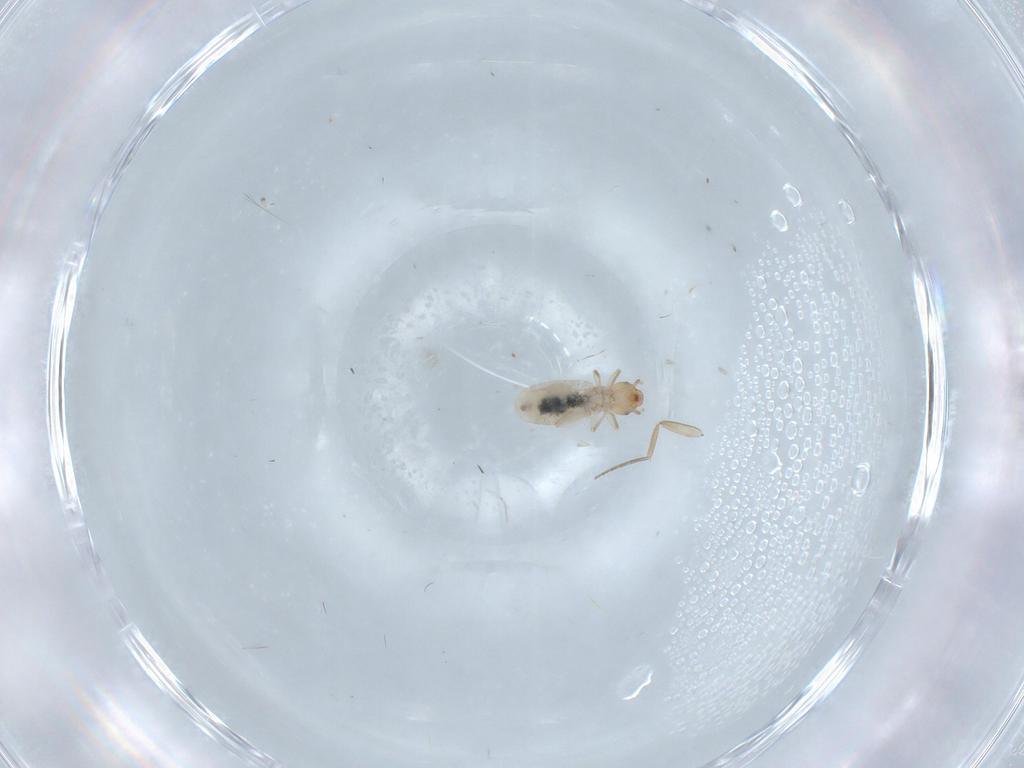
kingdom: Animalia
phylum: Arthropoda
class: Insecta
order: Psocodea
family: Liposcelididae
